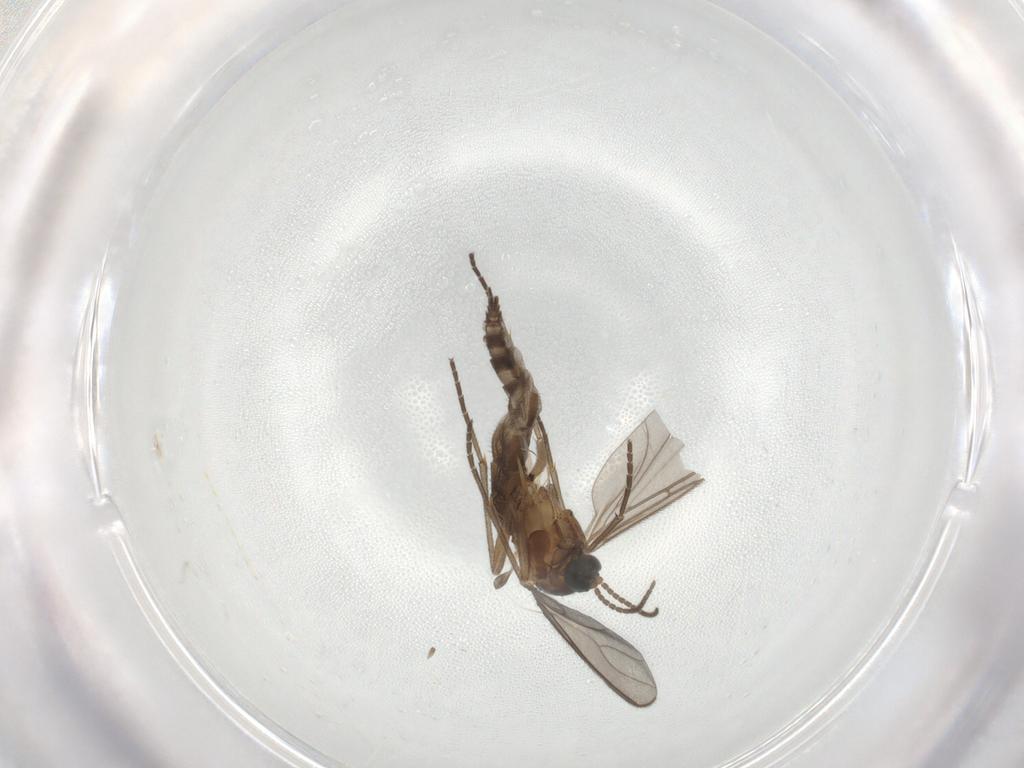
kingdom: Animalia
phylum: Arthropoda
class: Insecta
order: Diptera
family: Sciaridae
